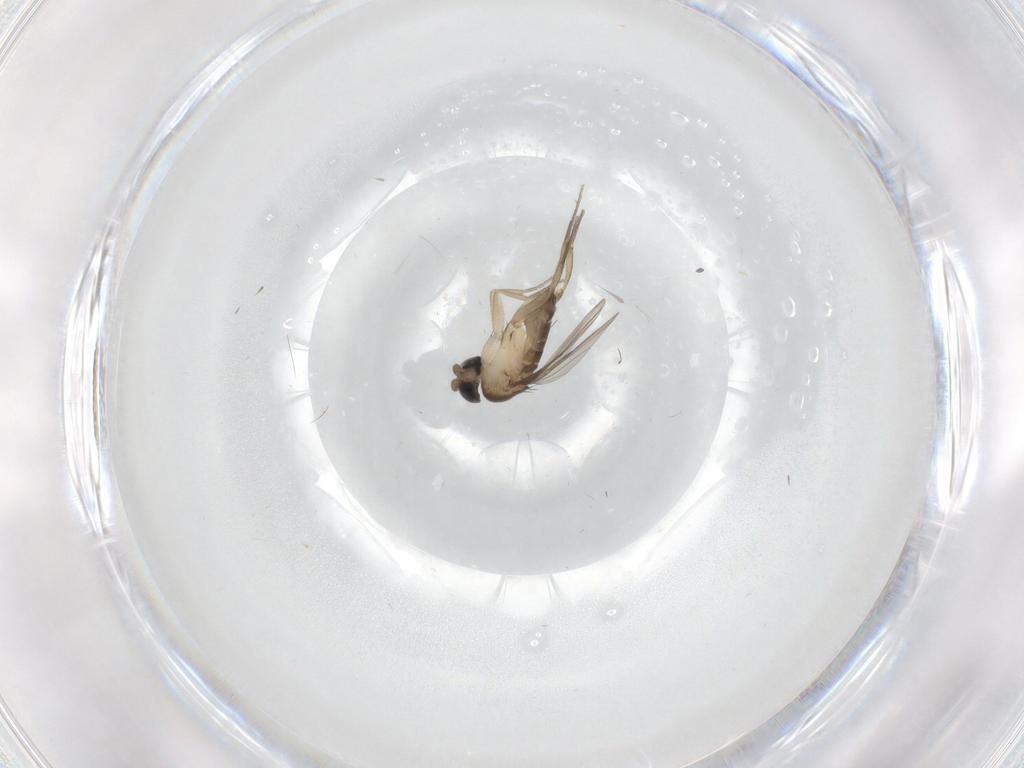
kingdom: Animalia
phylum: Arthropoda
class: Insecta
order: Diptera
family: Phoridae
